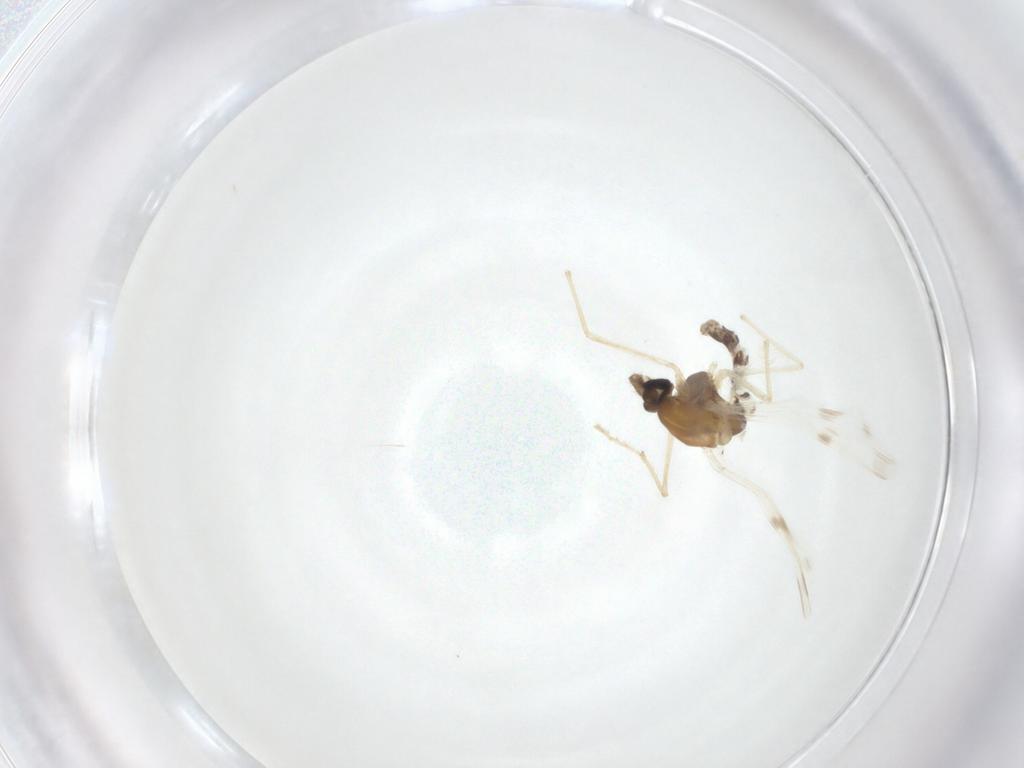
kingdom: Animalia
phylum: Arthropoda
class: Insecta
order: Diptera
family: Chironomidae
